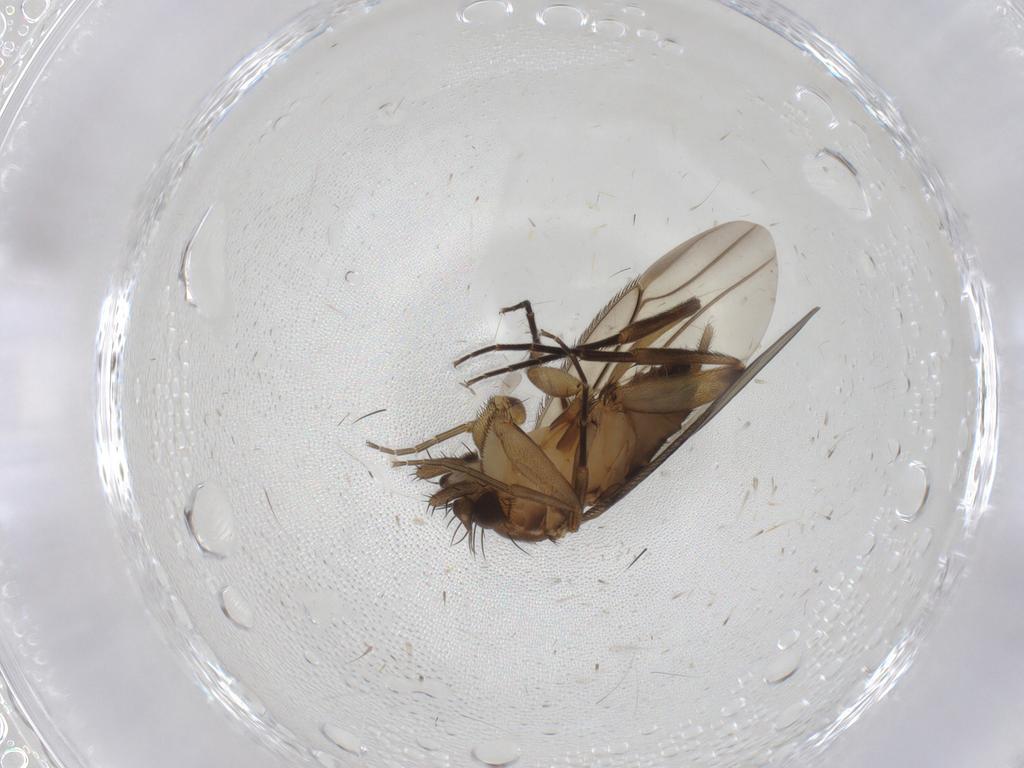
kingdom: Animalia
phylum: Arthropoda
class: Insecta
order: Diptera
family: Phoridae
